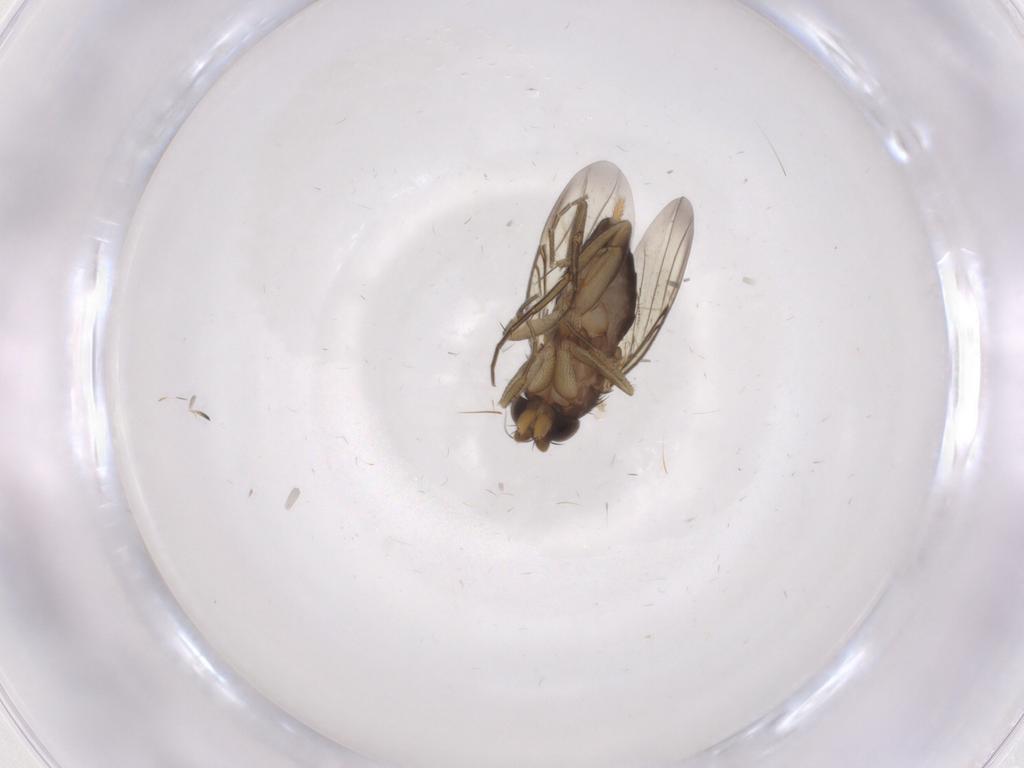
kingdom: Animalia
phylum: Arthropoda
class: Insecta
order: Diptera
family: Phoridae
